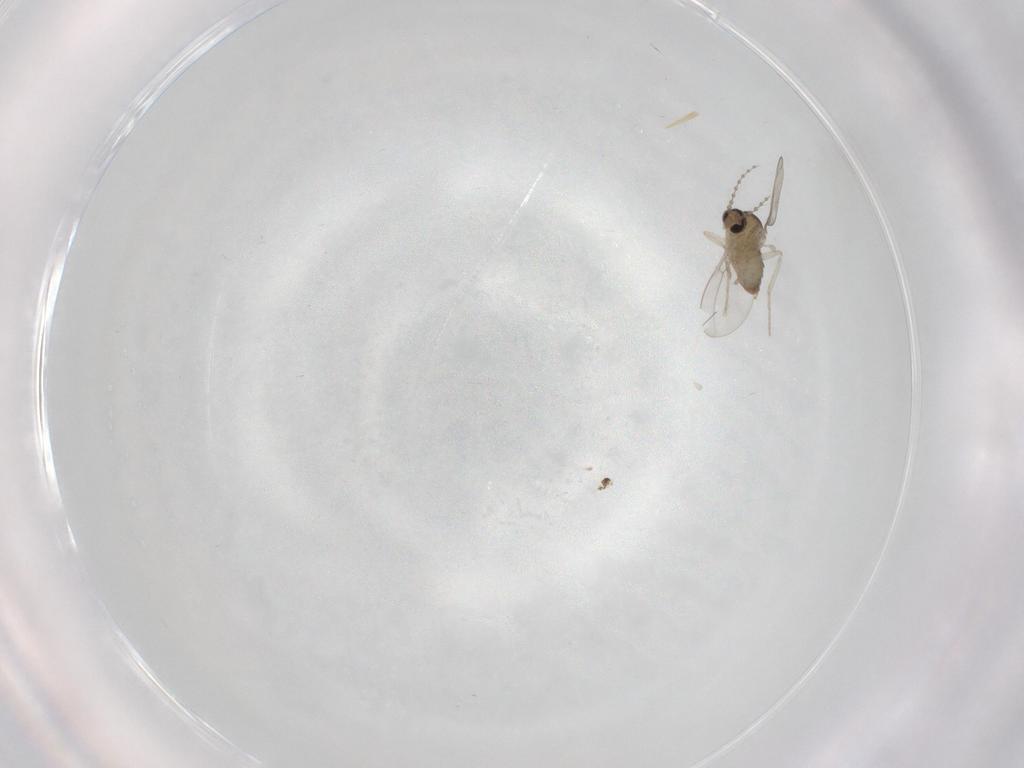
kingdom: Animalia
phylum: Arthropoda
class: Insecta
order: Diptera
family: Cecidomyiidae
